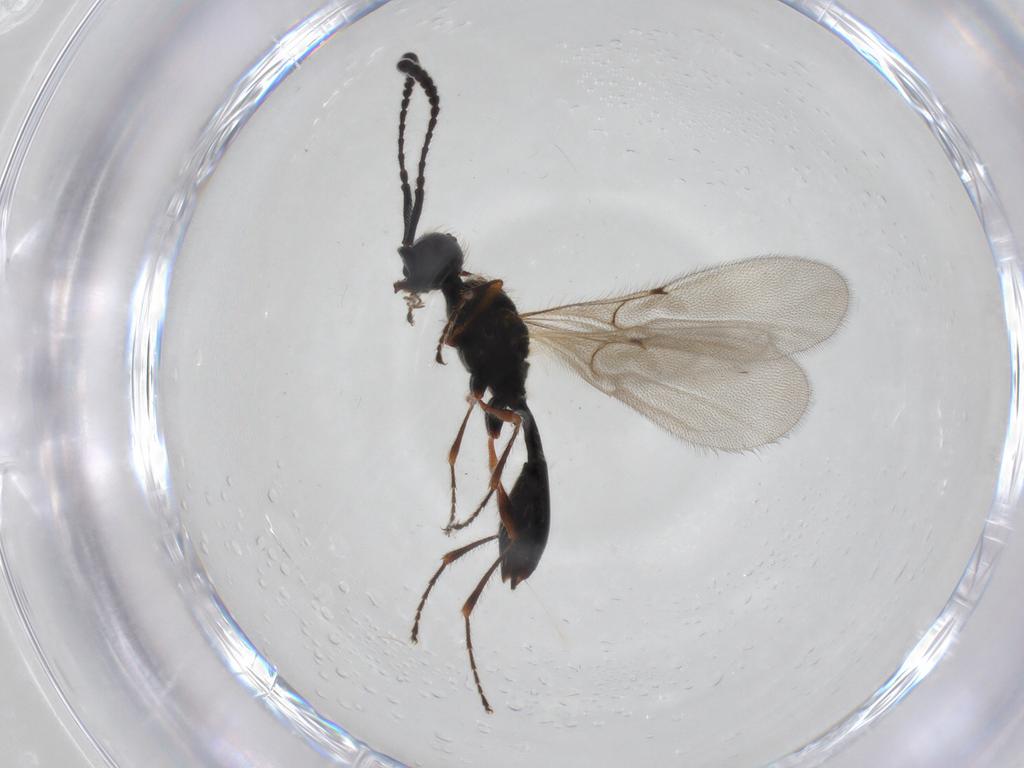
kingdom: Animalia
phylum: Arthropoda
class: Insecta
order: Hymenoptera
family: Diapriidae
